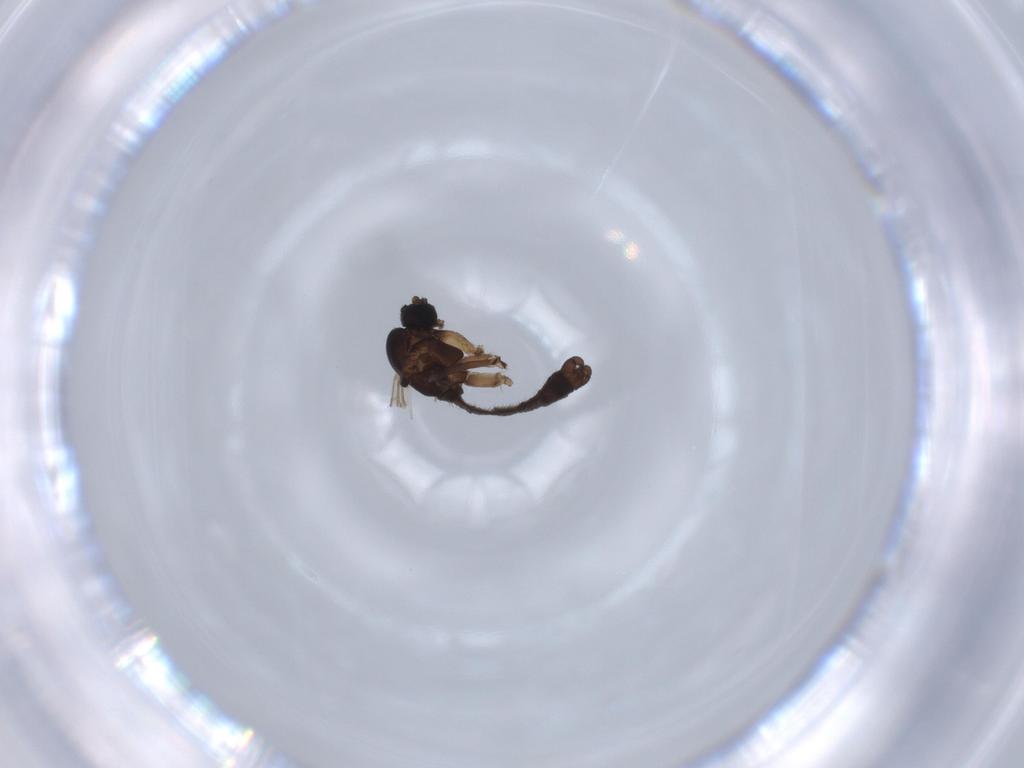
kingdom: Animalia
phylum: Arthropoda
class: Insecta
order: Diptera
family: Sciaridae
